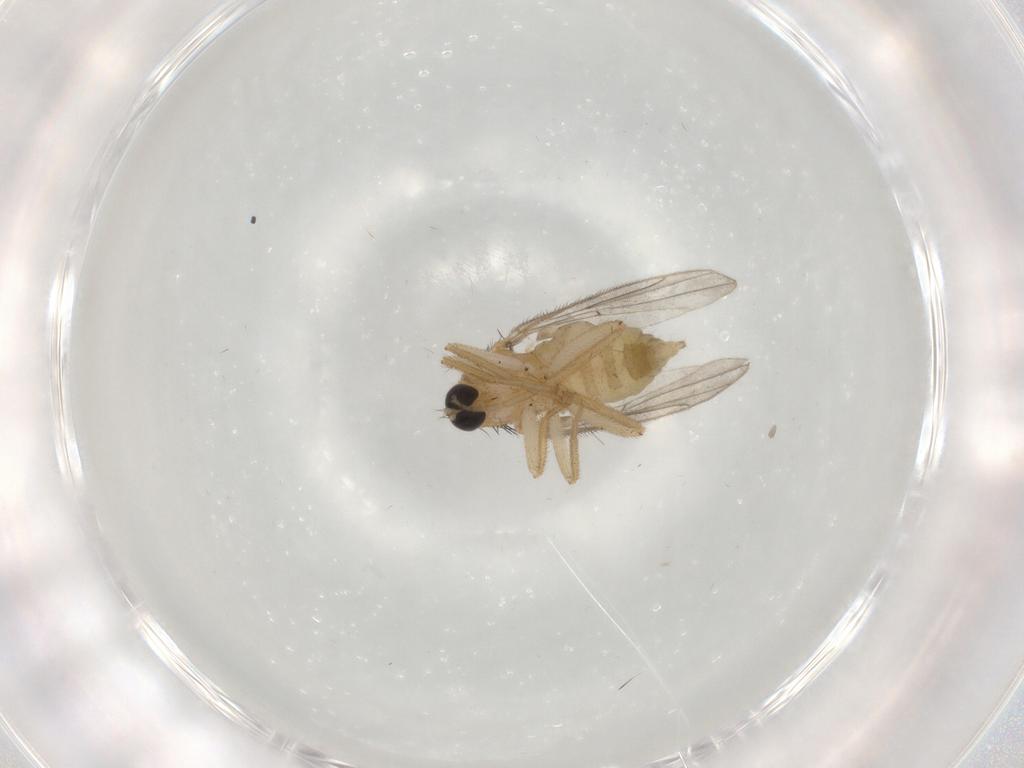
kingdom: Animalia
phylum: Arthropoda
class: Insecta
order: Diptera
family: Hybotidae
